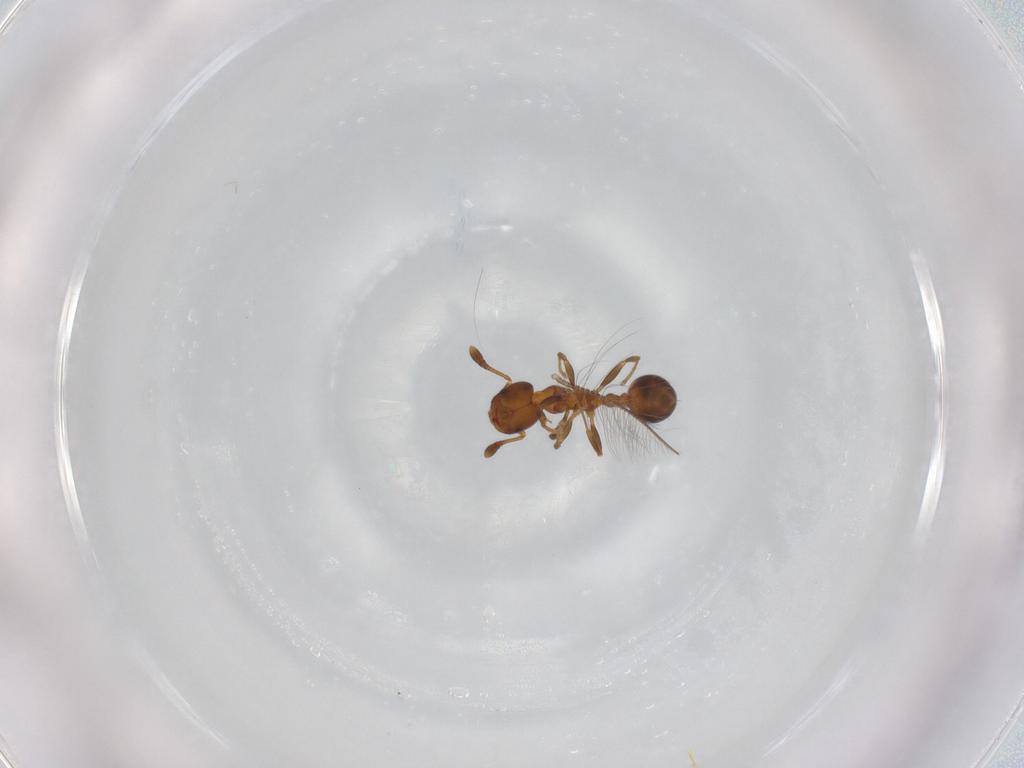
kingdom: Animalia
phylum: Arthropoda
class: Insecta
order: Hymenoptera
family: Formicidae
